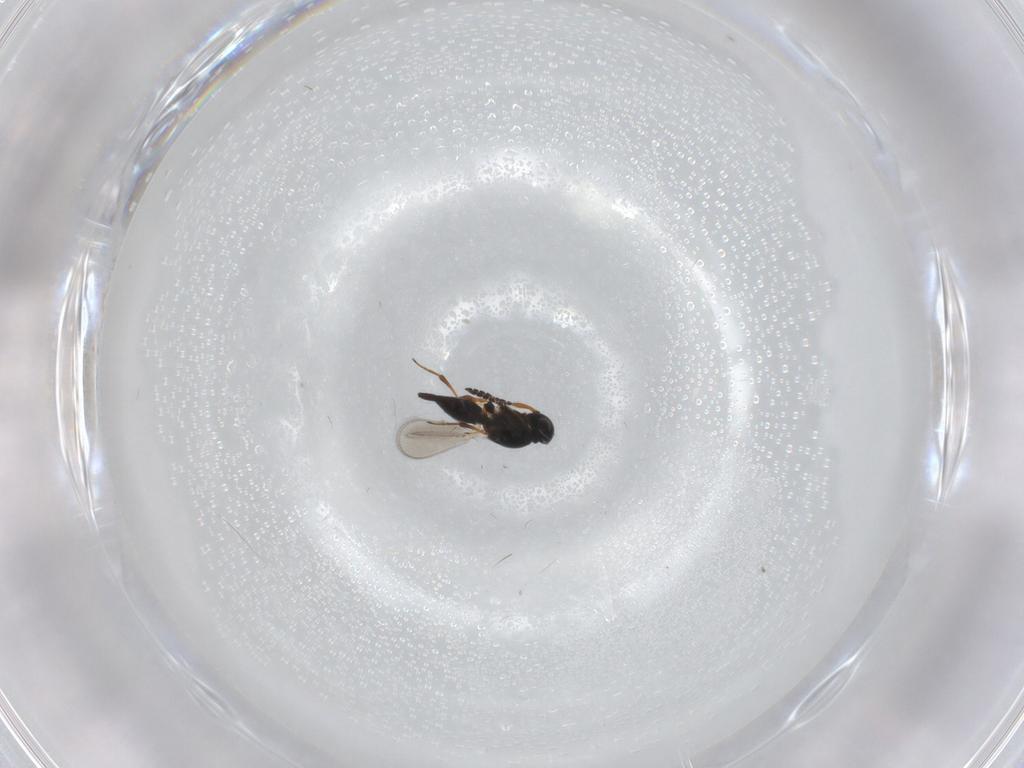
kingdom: Animalia
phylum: Arthropoda
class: Insecta
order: Hymenoptera
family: Platygastridae
